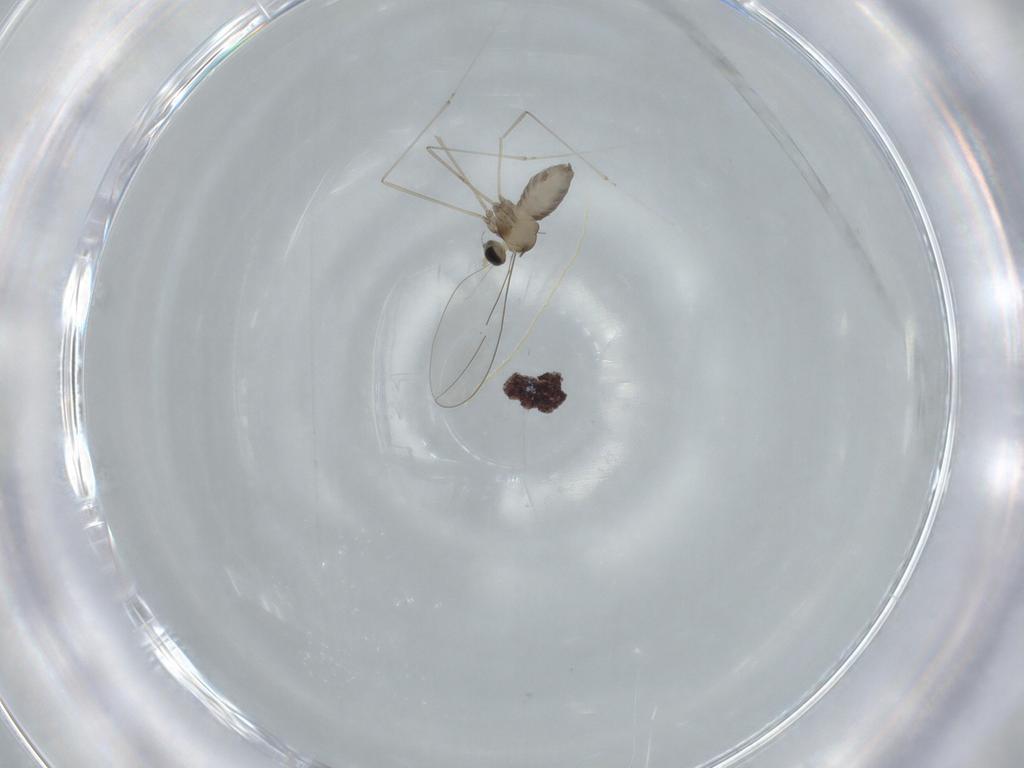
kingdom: Animalia
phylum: Arthropoda
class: Insecta
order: Diptera
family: Cecidomyiidae
